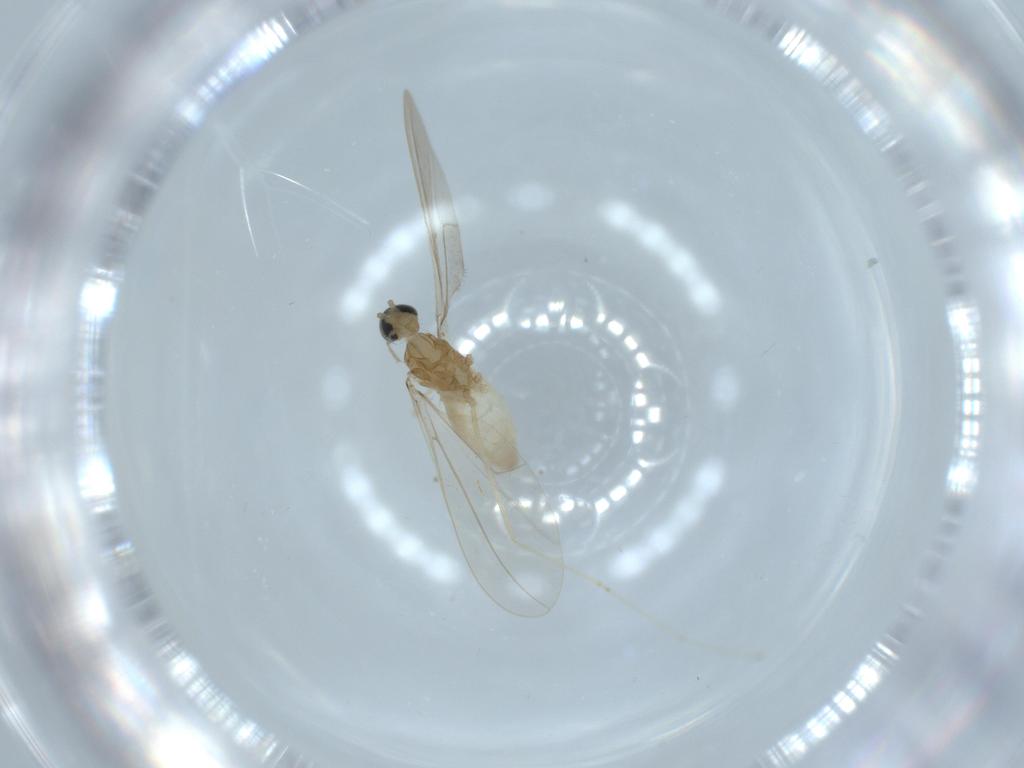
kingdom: Animalia
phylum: Arthropoda
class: Insecta
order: Diptera
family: Cecidomyiidae
